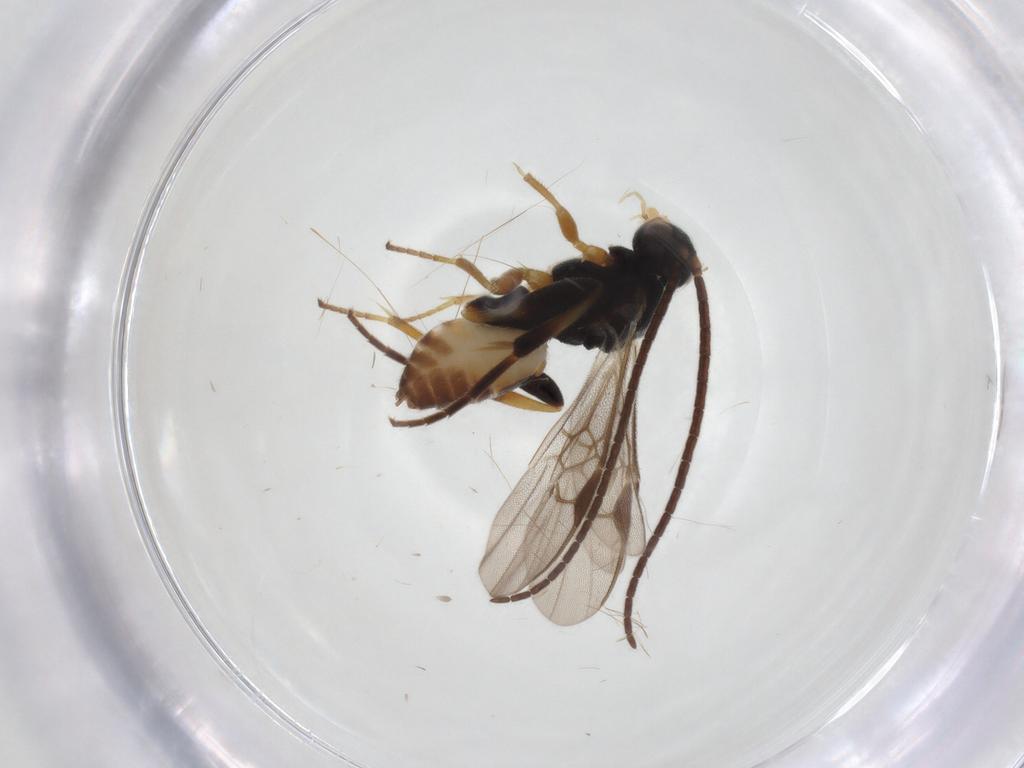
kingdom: Animalia
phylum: Arthropoda
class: Insecta
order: Hymenoptera
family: Braconidae
